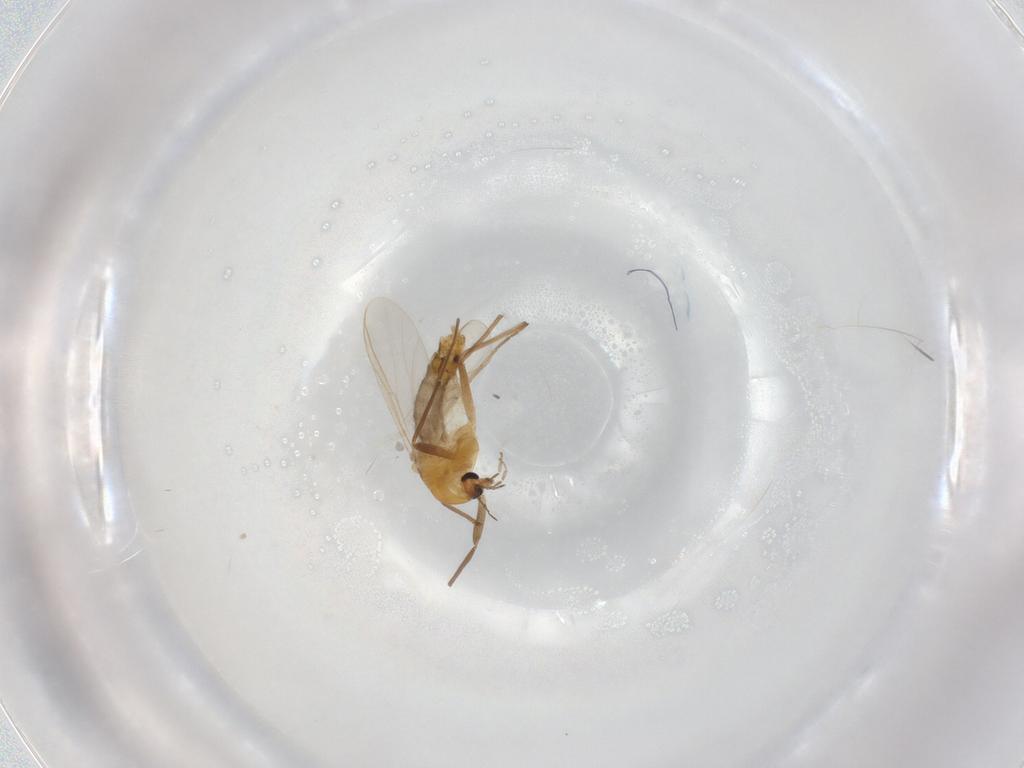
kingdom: Animalia
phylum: Arthropoda
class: Insecta
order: Diptera
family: Chironomidae
